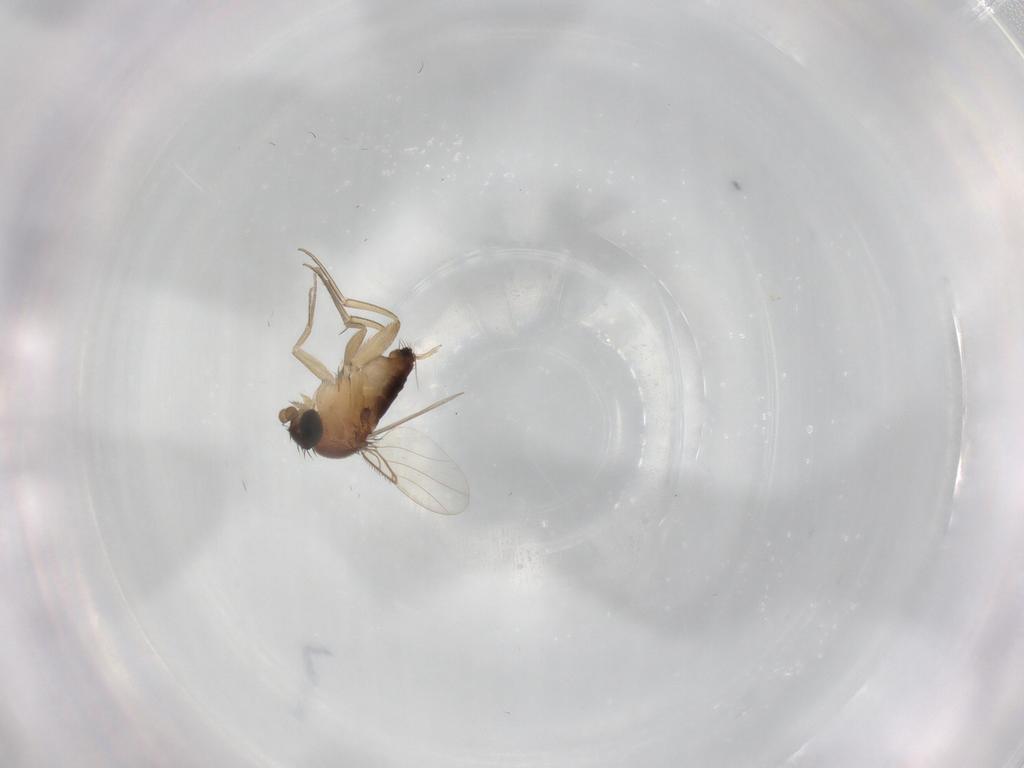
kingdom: Animalia
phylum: Arthropoda
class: Insecta
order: Diptera
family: Phoridae
